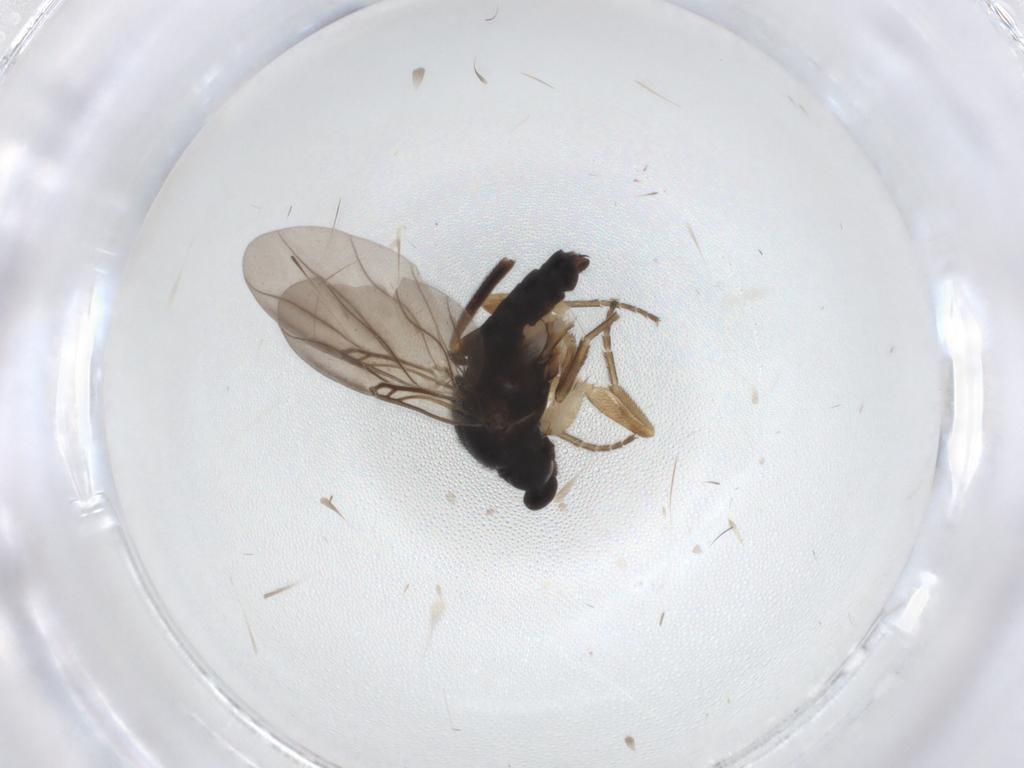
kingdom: Animalia
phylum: Arthropoda
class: Insecta
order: Diptera
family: Phoridae
